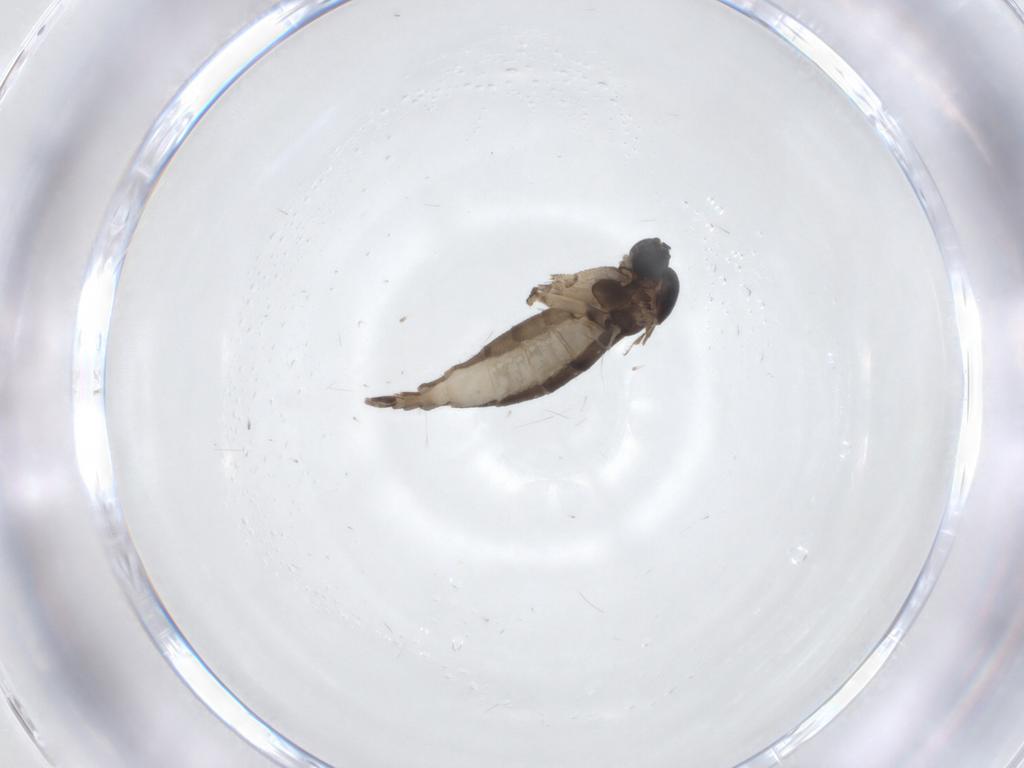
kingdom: Animalia
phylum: Arthropoda
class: Insecta
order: Diptera
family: Sciaridae
